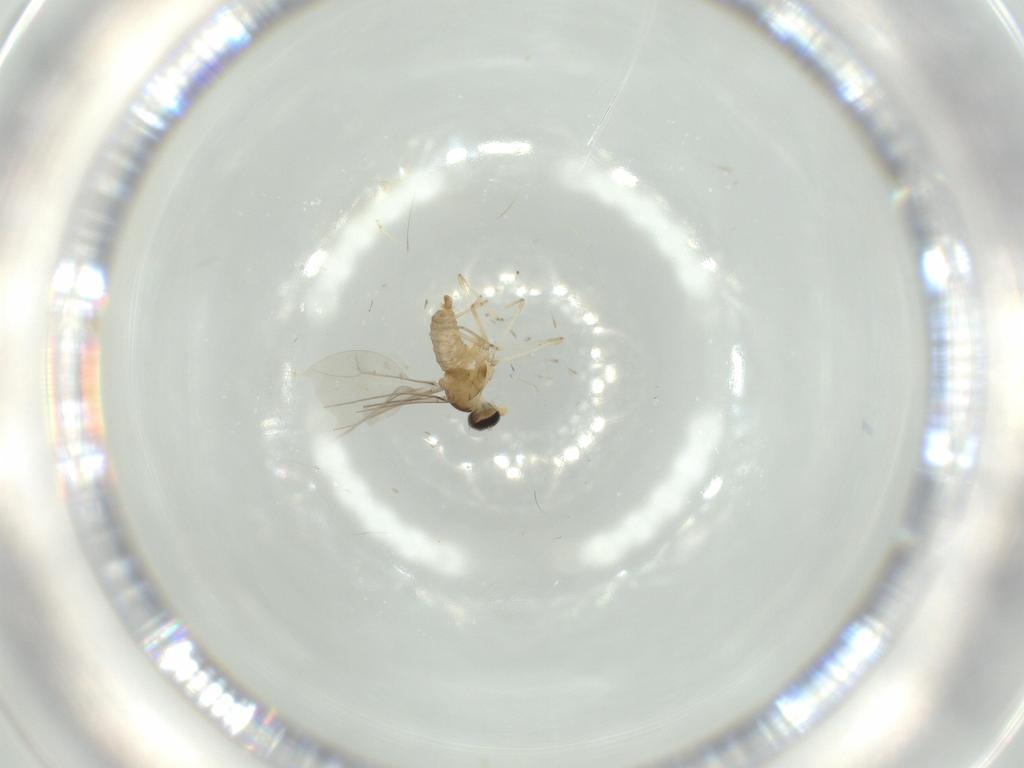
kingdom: Animalia
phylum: Arthropoda
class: Insecta
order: Diptera
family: Cecidomyiidae
